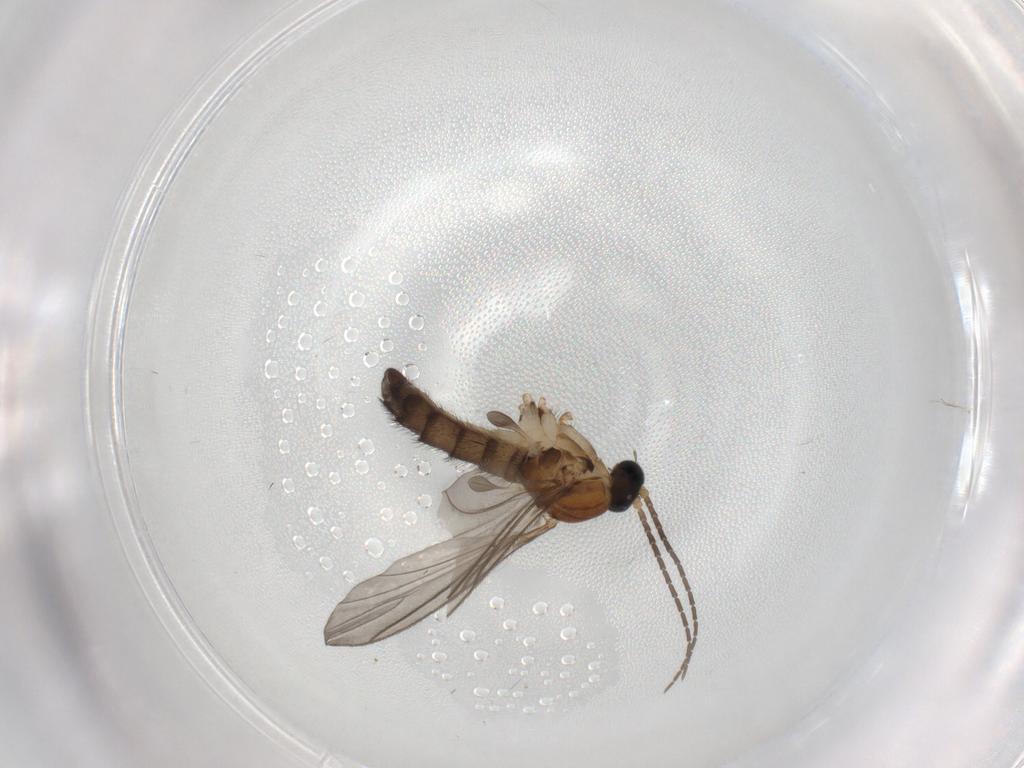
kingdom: Animalia
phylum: Arthropoda
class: Insecta
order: Diptera
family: Sciaridae
